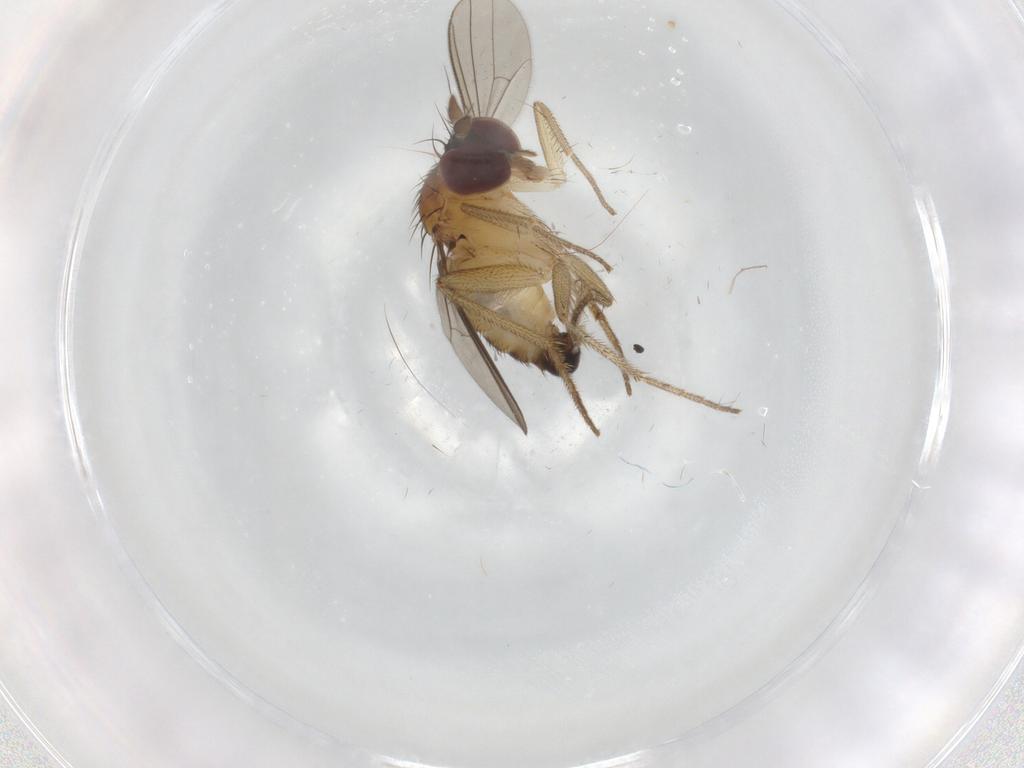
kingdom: Animalia
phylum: Arthropoda
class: Insecta
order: Diptera
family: Dolichopodidae
